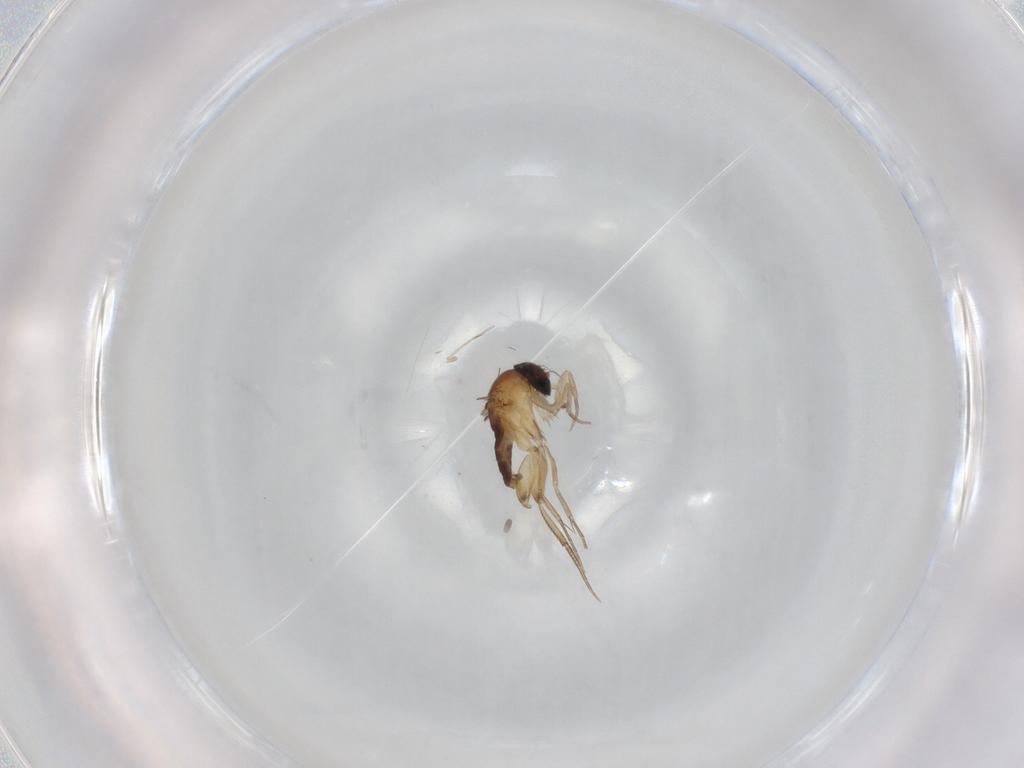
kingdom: Animalia
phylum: Arthropoda
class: Insecta
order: Diptera
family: Phoridae
